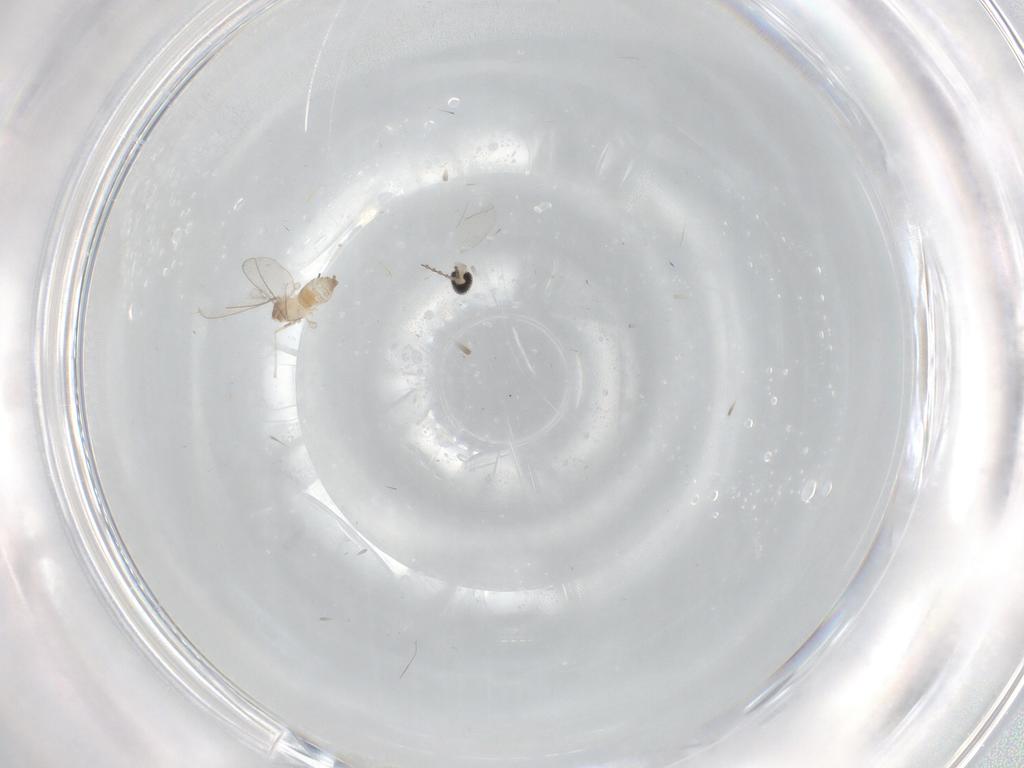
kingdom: Animalia
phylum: Arthropoda
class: Insecta
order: Diptera
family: Cecidomyiidae
